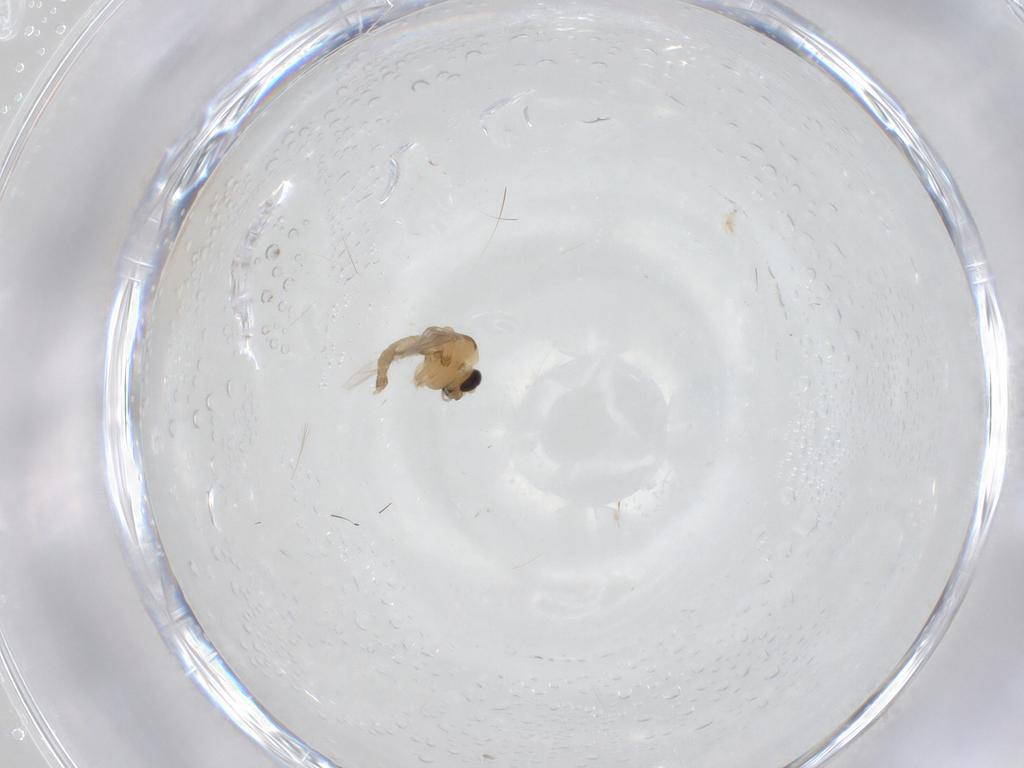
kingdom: Animalia
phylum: Arthropoda
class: Insecta
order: Diptera
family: Chironomidae
